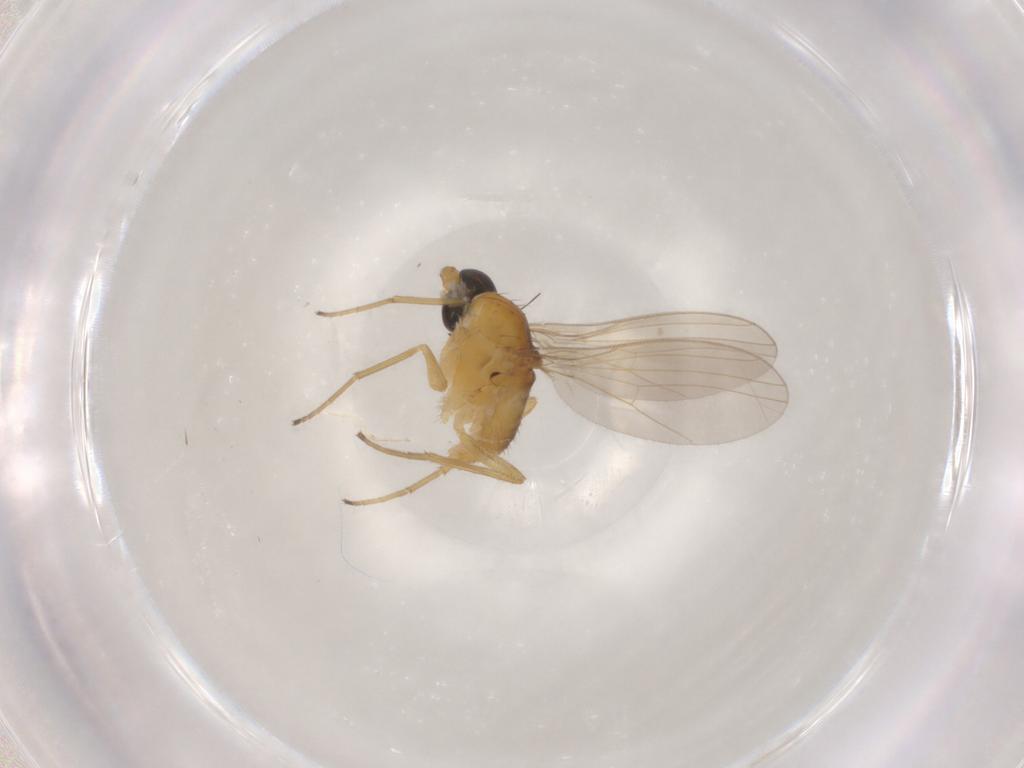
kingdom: Animalia
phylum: Arthropoda
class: Insecta
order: Diptera
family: Dolichopodidae
